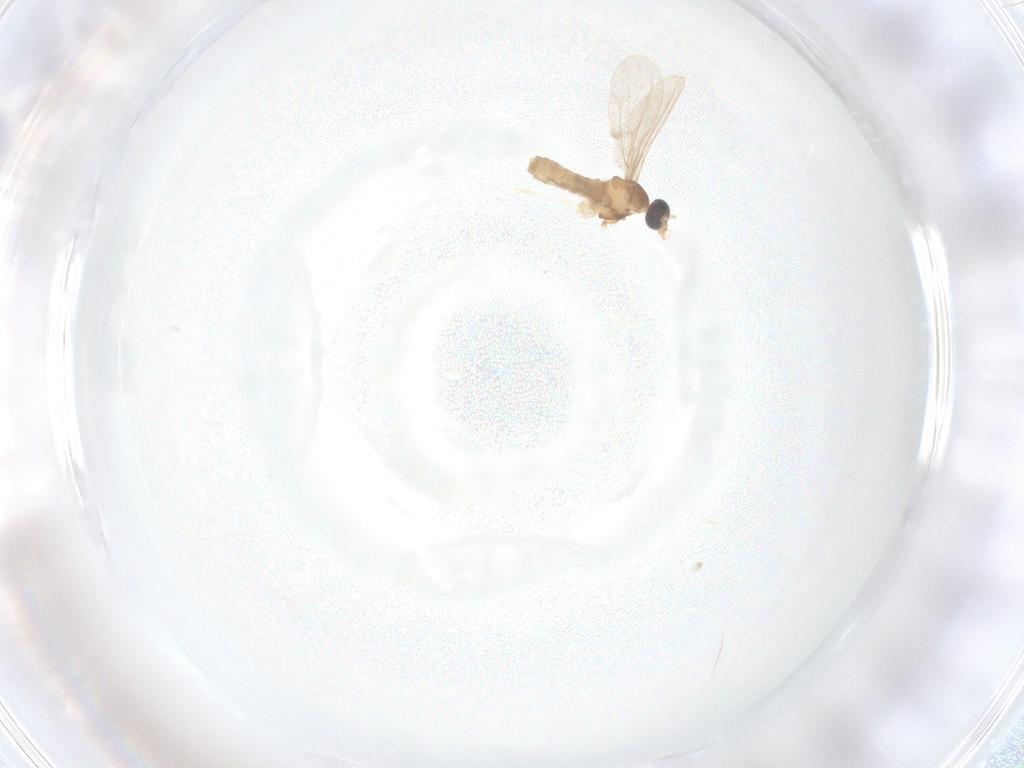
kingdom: Animalia
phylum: Arthropoda
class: Insecta
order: Diptera
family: Cecidomyiidae
